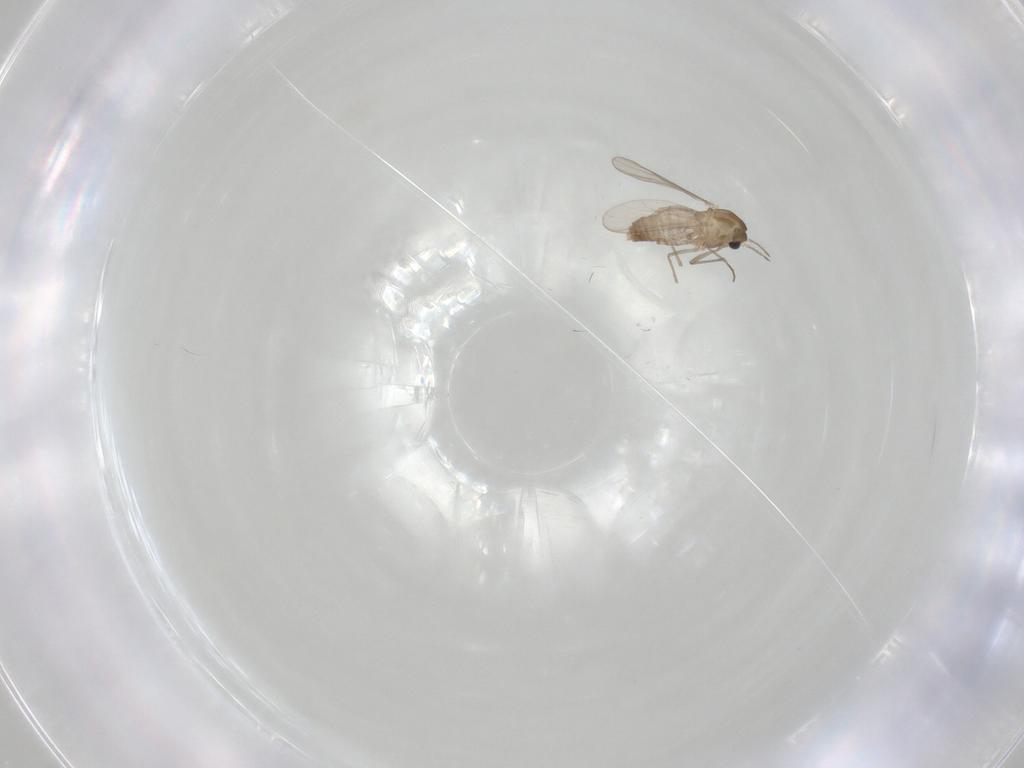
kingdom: Animalia
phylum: Arthropoda
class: Insecta
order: Diptera
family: Chironomidae
